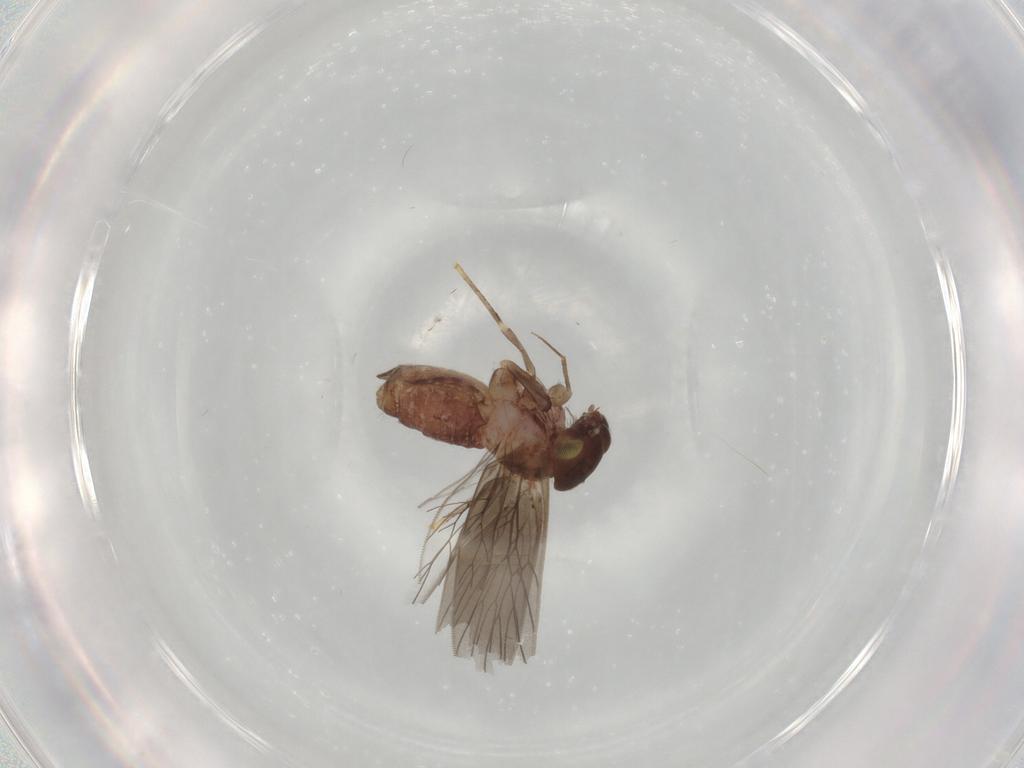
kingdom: Animalia
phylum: Arthropoda
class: Insecta
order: Psocodea
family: Lepidopsocidae
